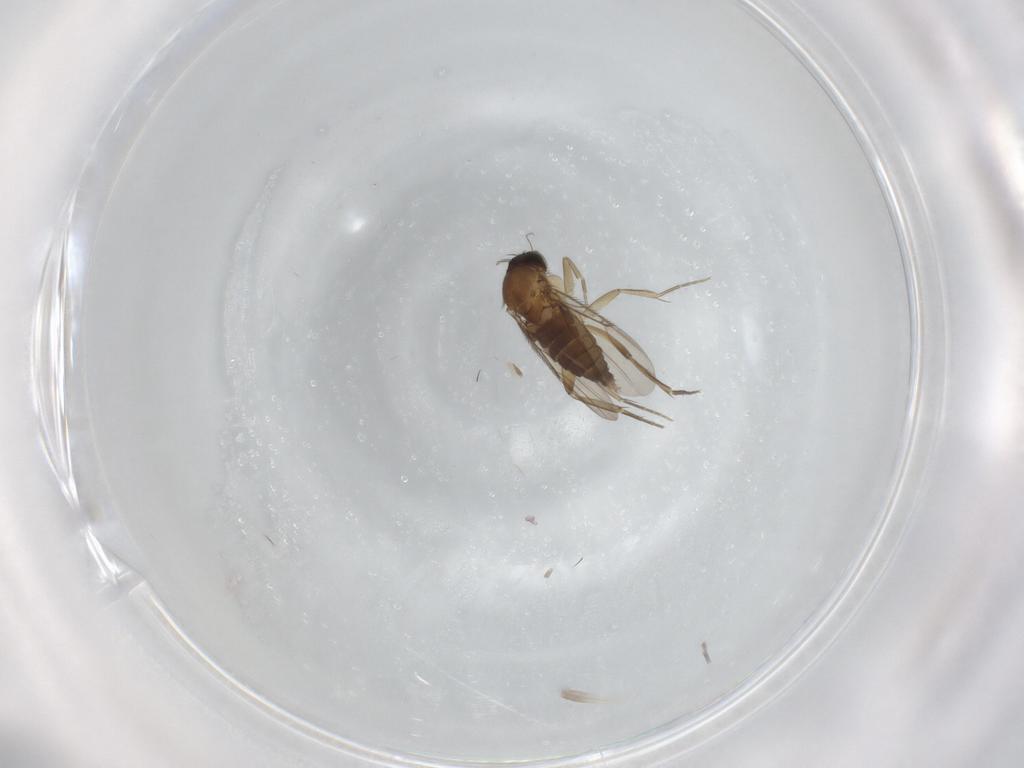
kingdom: Animalia
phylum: Arthropoda
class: Insecta
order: Diptera
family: Phoridae
